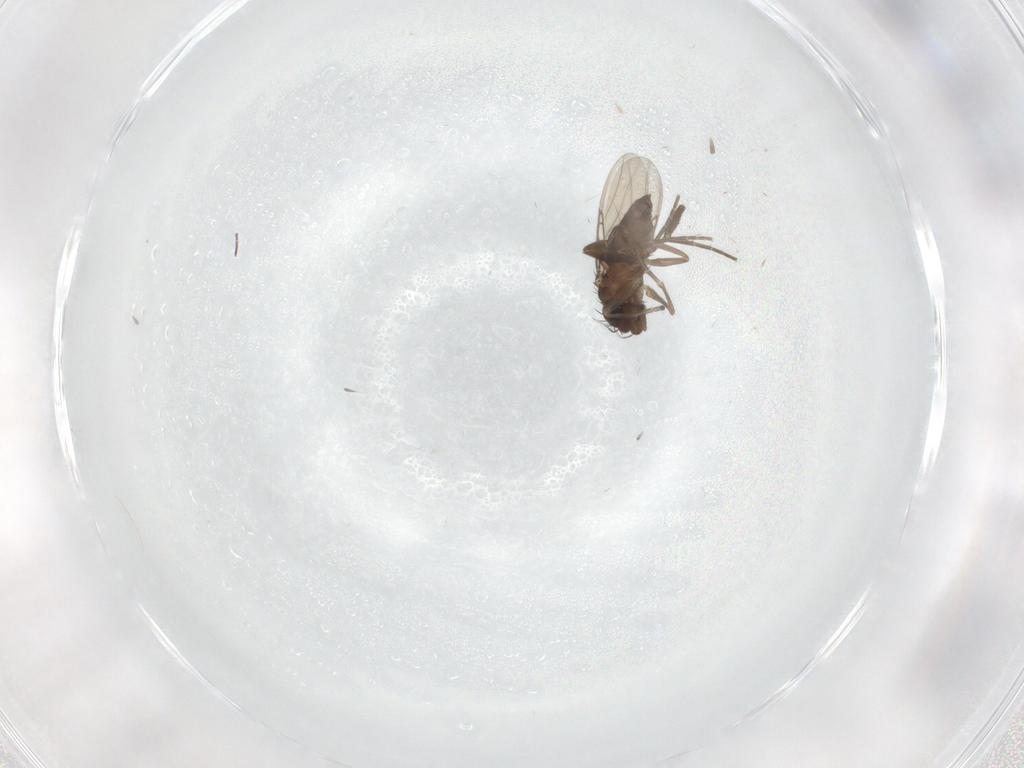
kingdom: Animalia
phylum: Arthropoda
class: Insecta
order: Diptera
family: Phoridae
